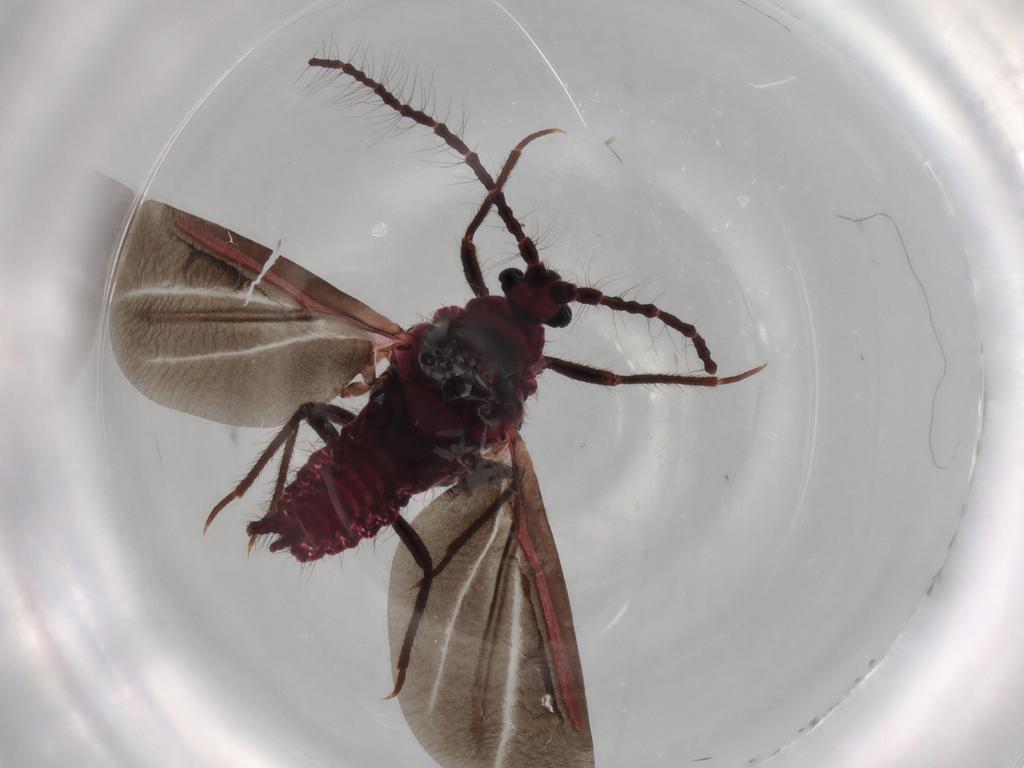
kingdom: Animalia
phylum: Arthropoda
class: Insecta
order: Hemiptera
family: Monophlebidae
